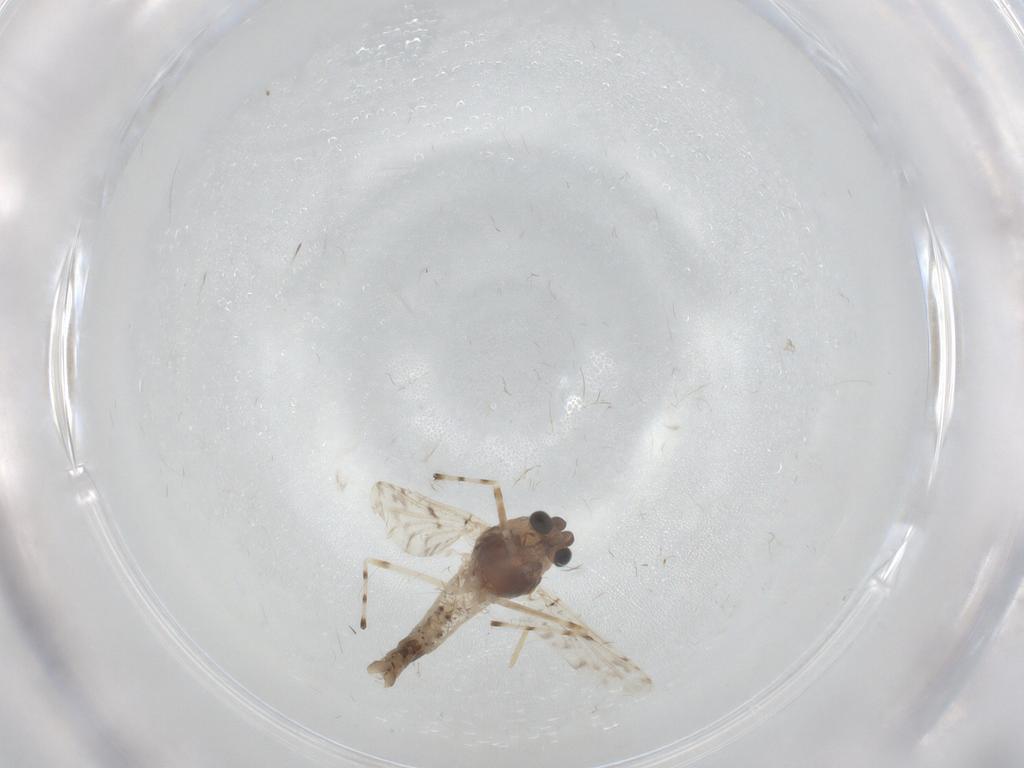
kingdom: Animalia
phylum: Arthropoda
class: Insecta
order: Diptera
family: Chironomidae
